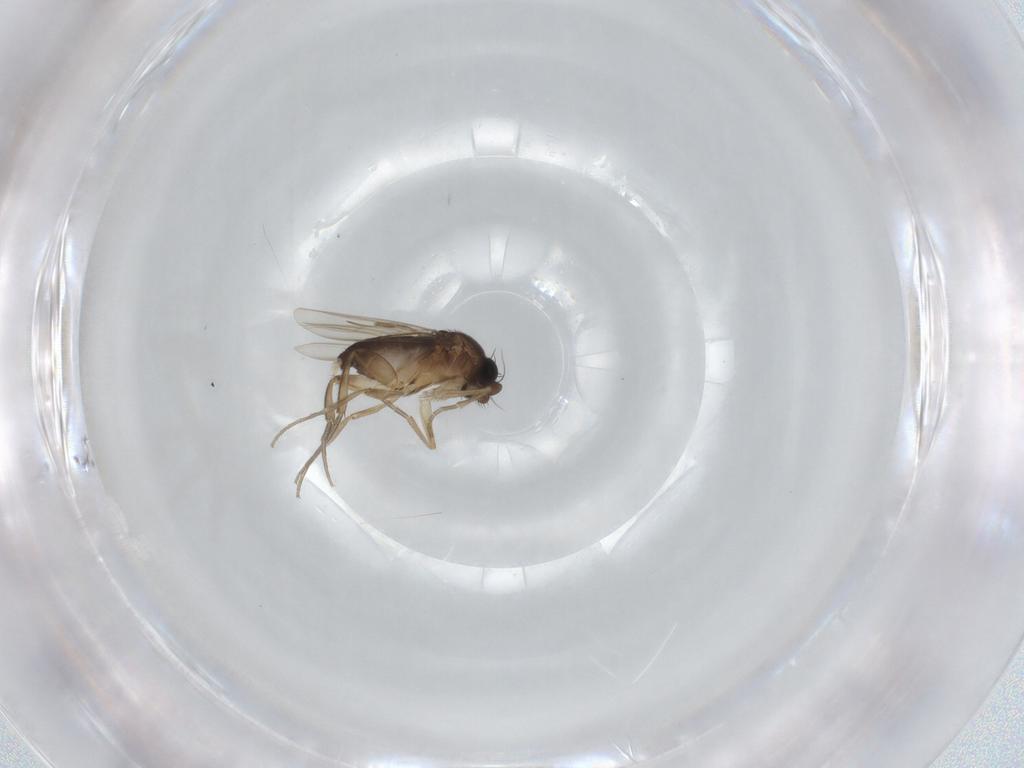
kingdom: Animalia
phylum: Arthropoda
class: Insecta
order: Diptera
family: Phoridae
